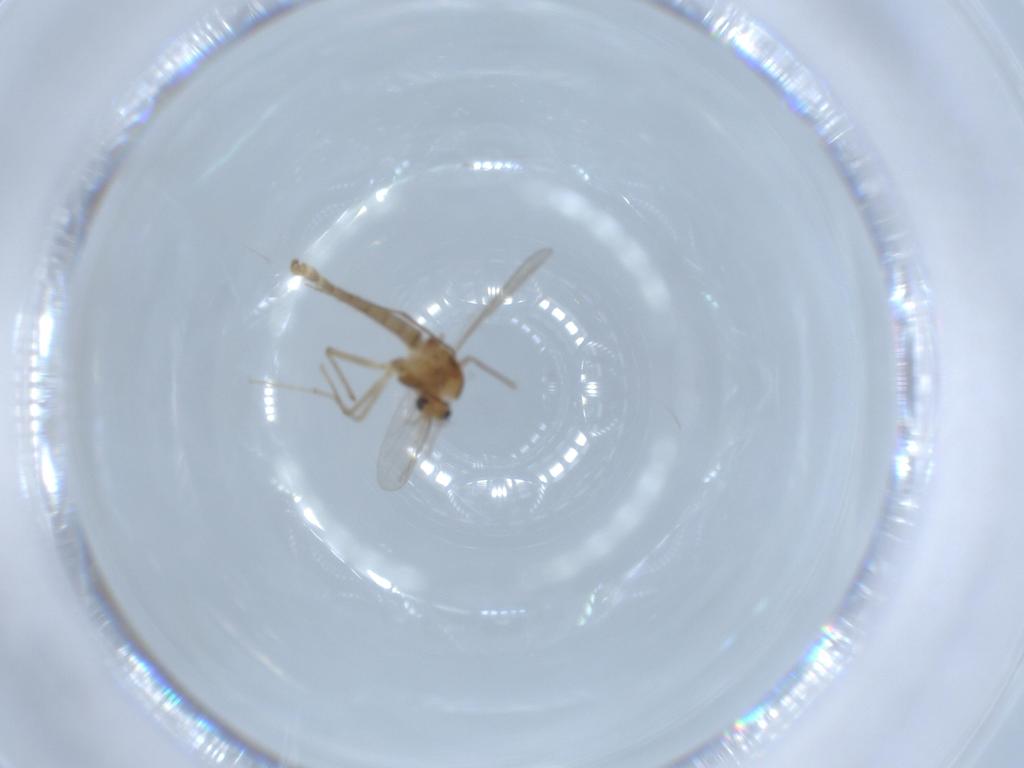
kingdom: Animalia
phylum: Arthropoda
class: Insecta
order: Diptera
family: Chironomidae
